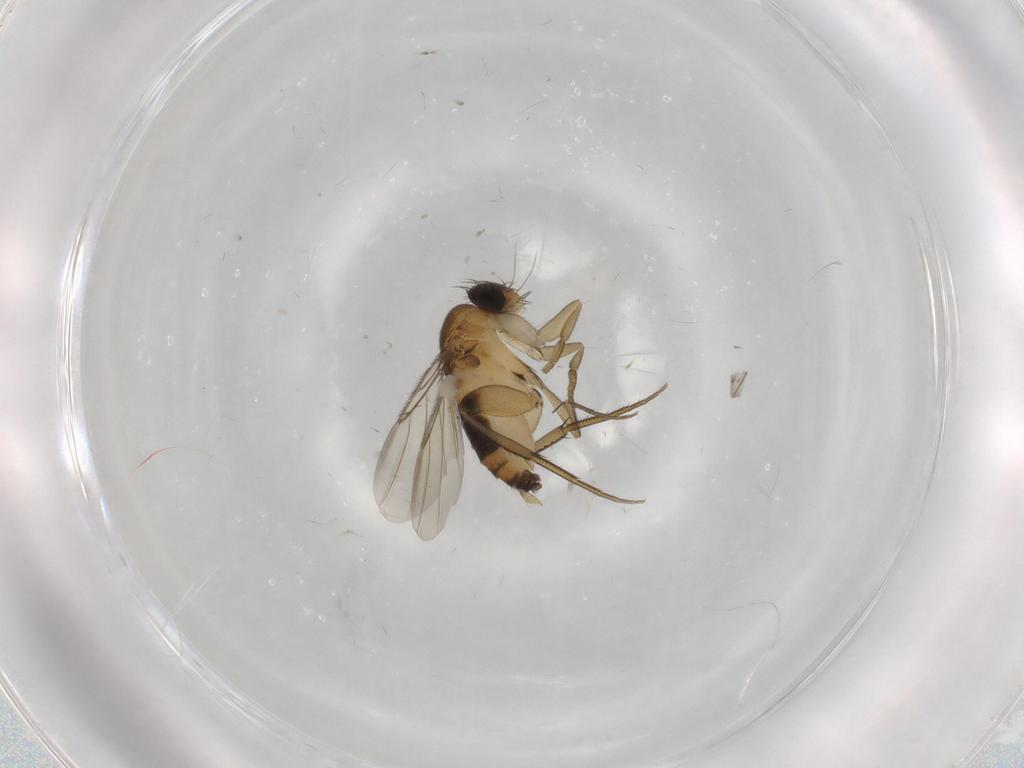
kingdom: Animalia
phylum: Arthropoda
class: Insecta
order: Diptera
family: Phoridae
